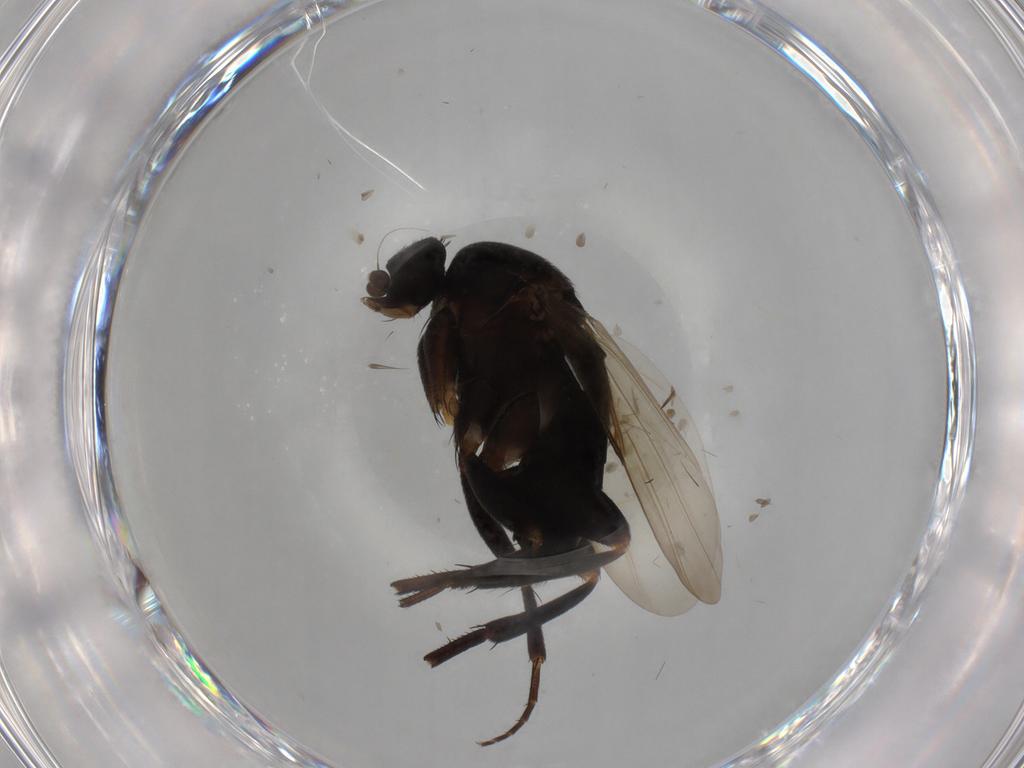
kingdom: Animalia
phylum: Arthropoda
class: Insecta
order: Diptera
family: Phoridae
